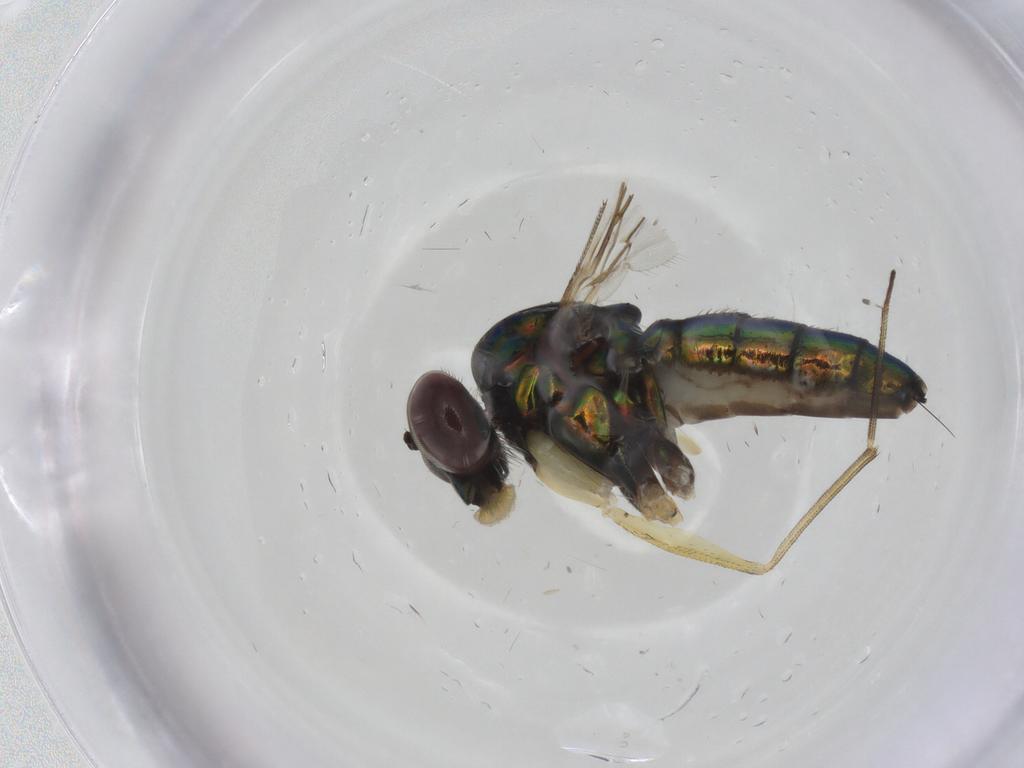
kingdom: Animalia
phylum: Arthropoda
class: Insecta
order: Diptera
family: Dolichopodidae
